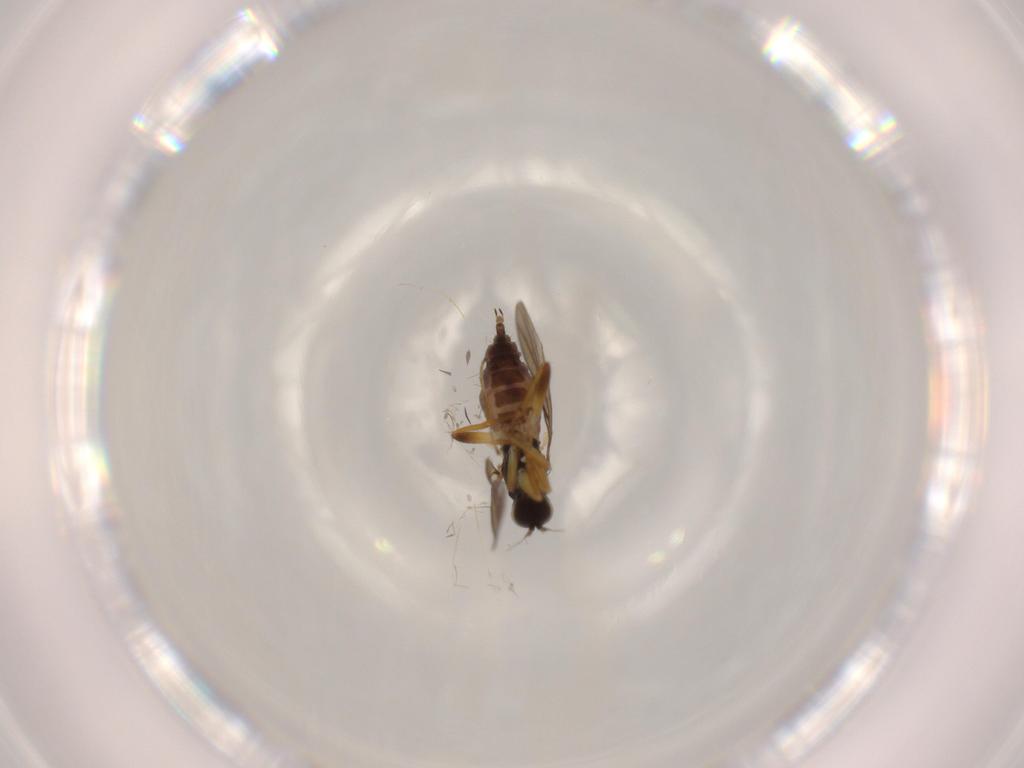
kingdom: Animalia
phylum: Arthropoda
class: Insecta
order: Diptera
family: Hybotidae
